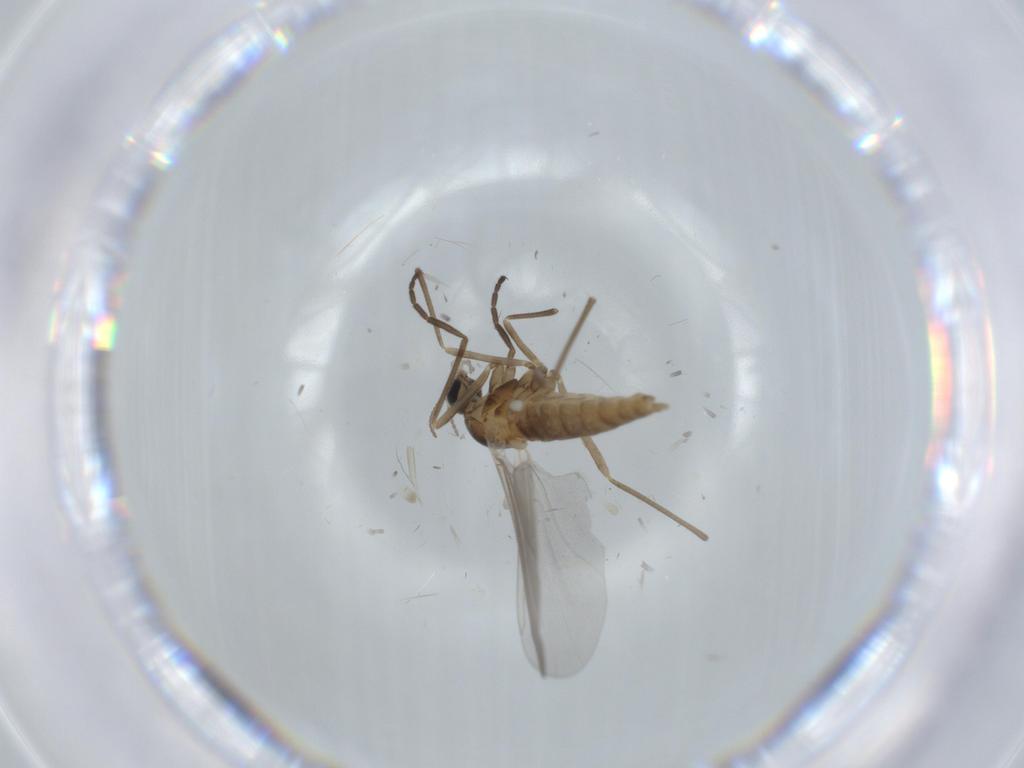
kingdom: Animalia
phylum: Arthropoda
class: Insecta
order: Diptera
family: Cecidomyiidae
